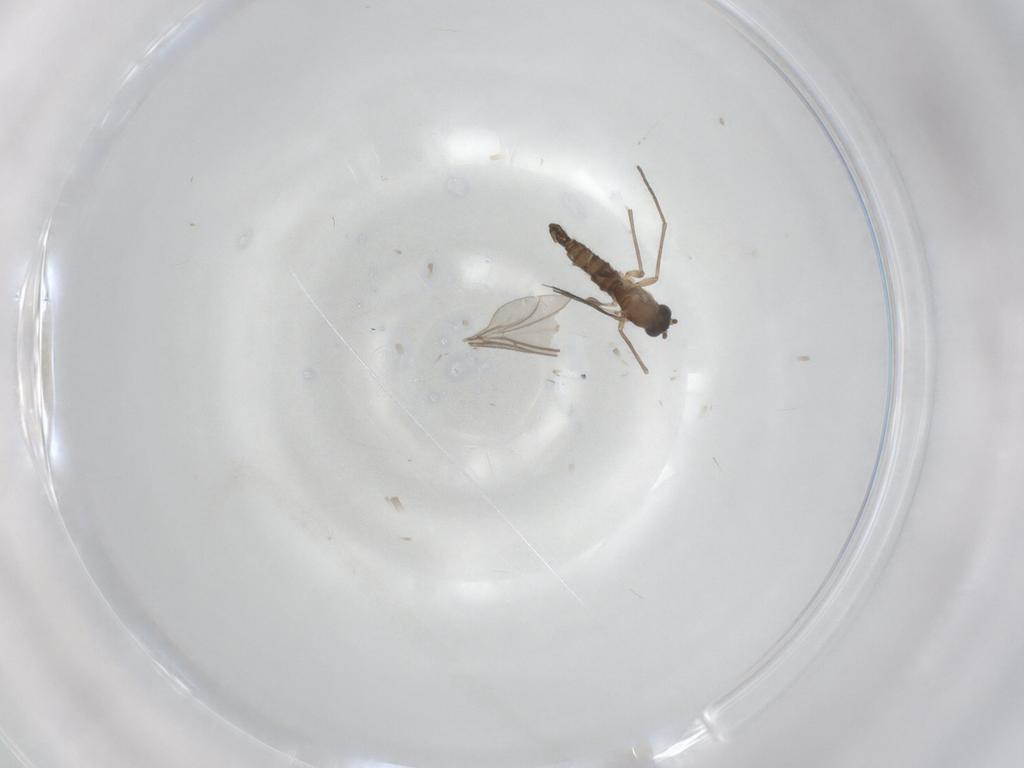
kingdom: Animalia
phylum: Arthropoda
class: Insecta
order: Diptera
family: Sciaridae
